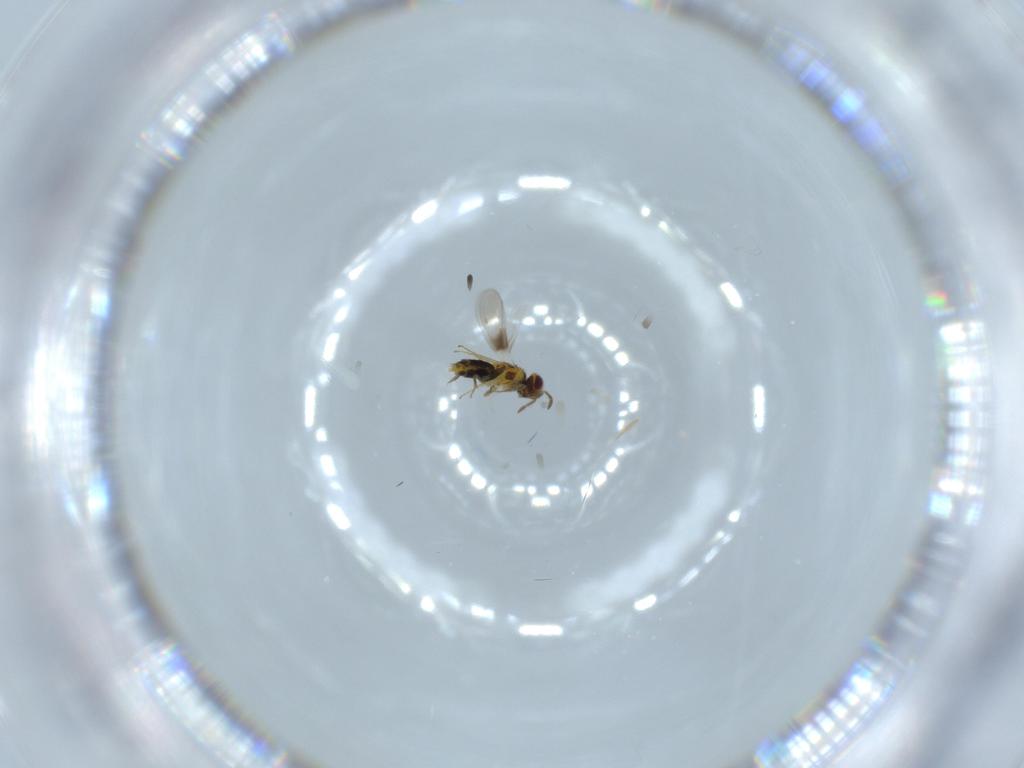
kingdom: Animalia
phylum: Arthropoda
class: Insecta
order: Hymenoptera
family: Aphelinidae
